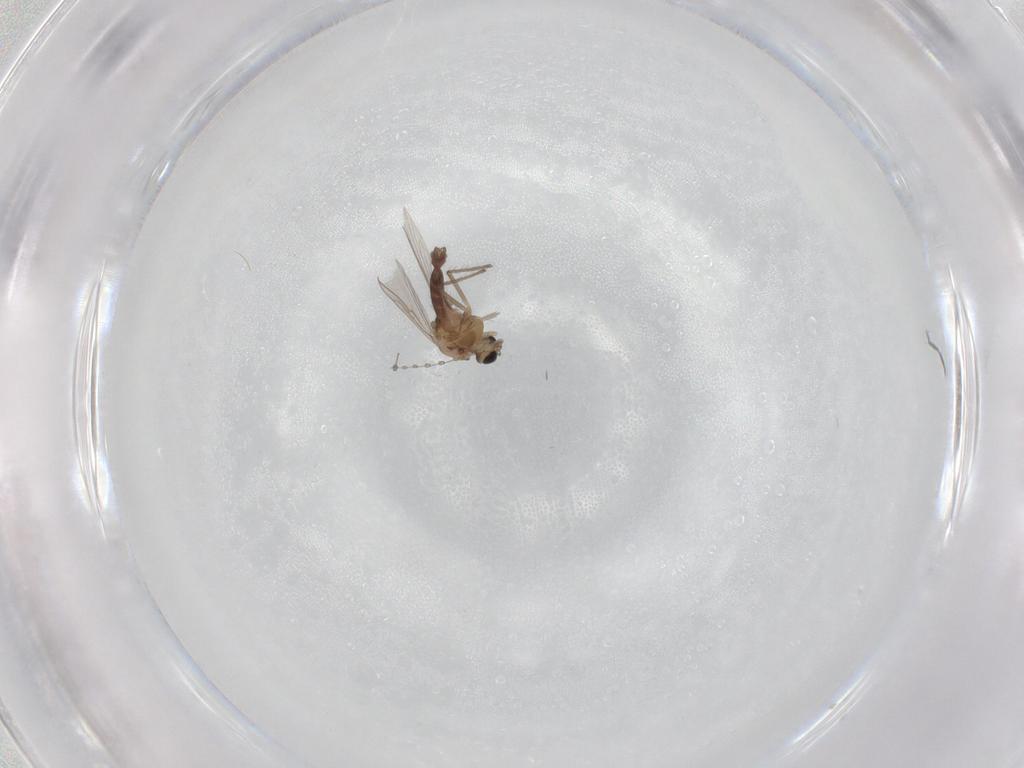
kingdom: Animalia
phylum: Arthropoda
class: Insecta
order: Diptera
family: Chironomidae
